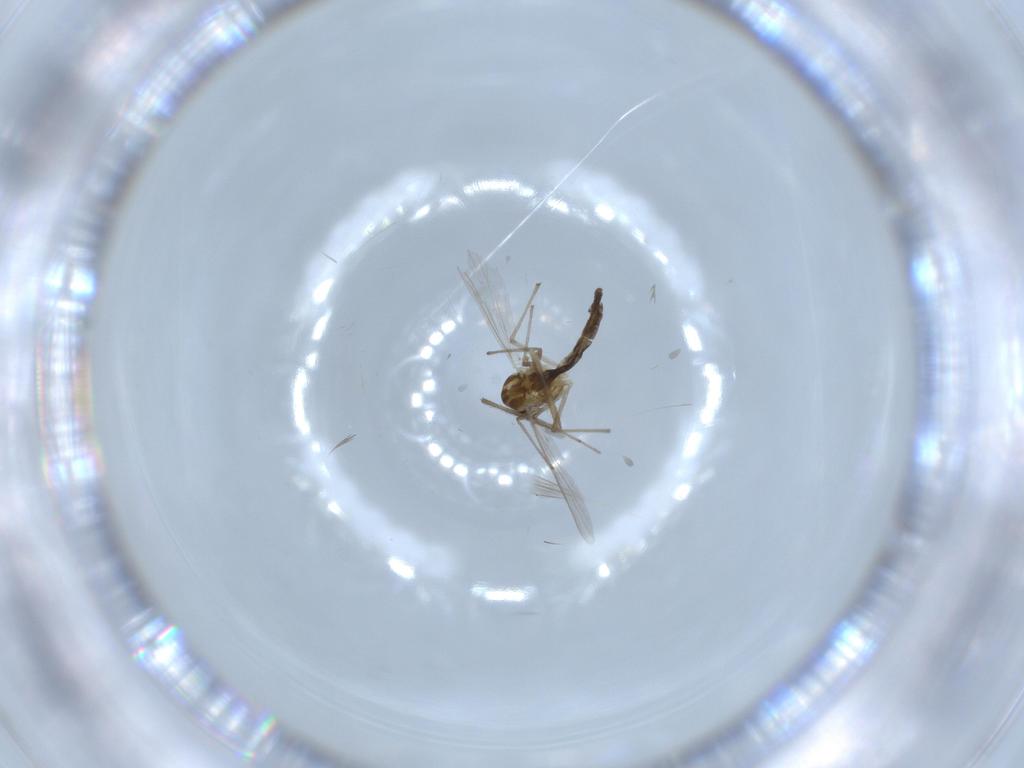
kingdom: Animalia
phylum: Arthropoda
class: Insecta
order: Diptera
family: Chironomidae
